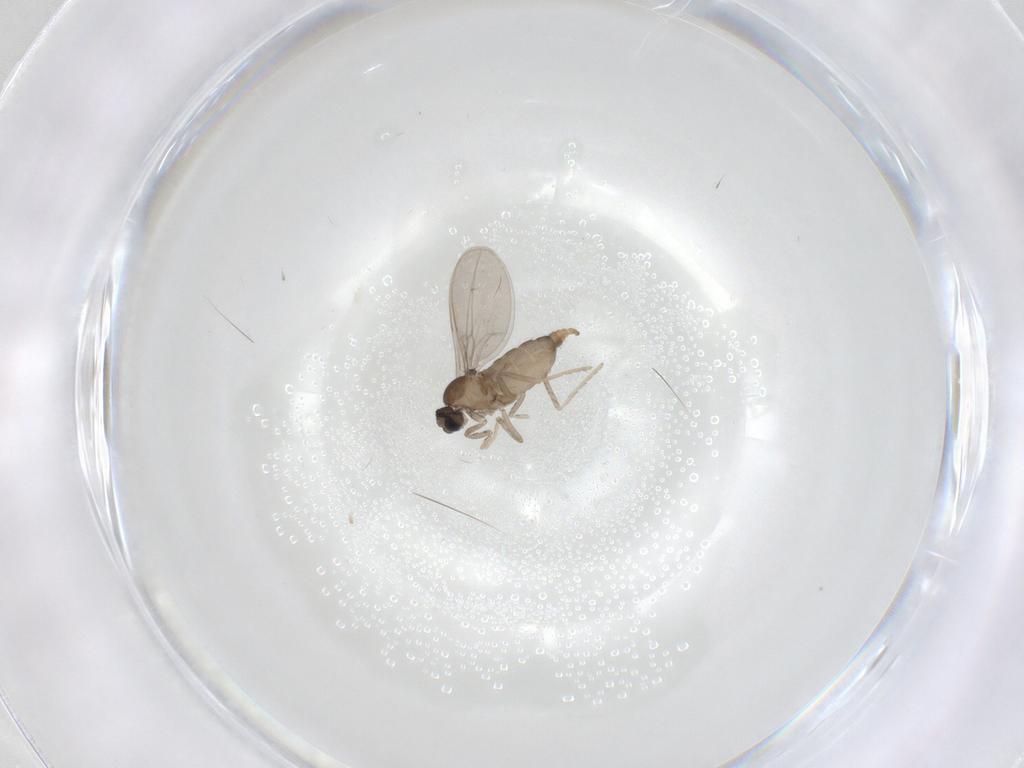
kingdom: Animalia
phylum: Arthropoda
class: Insecta
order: Diptera
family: Cecidomyiidae
